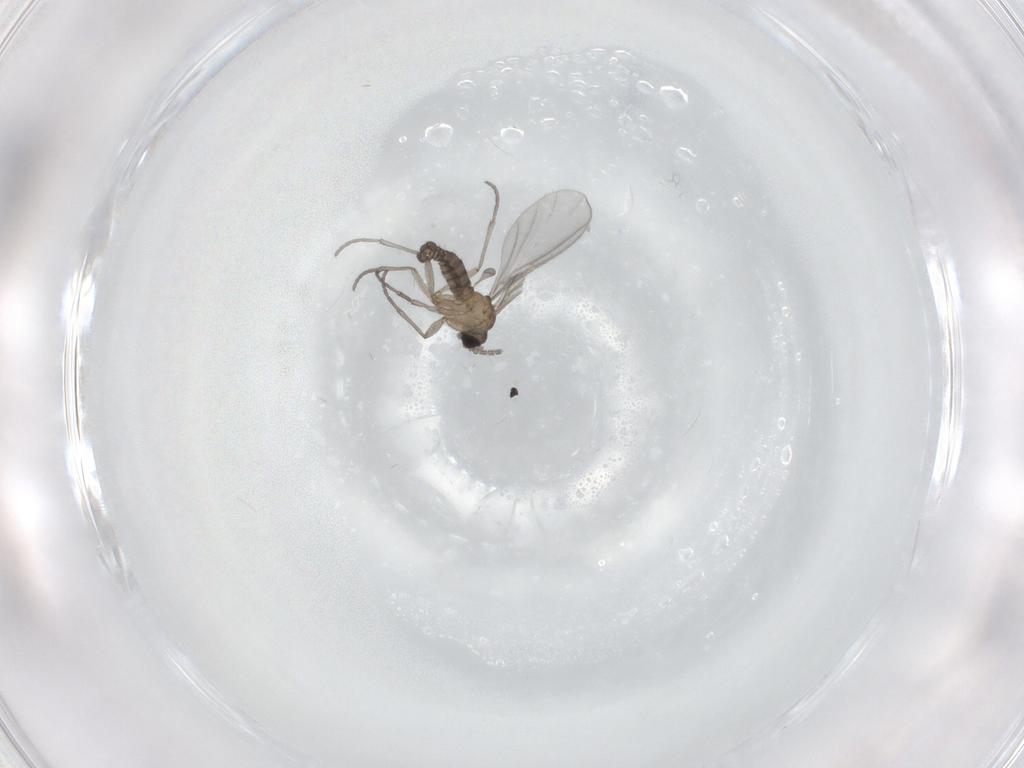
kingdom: Animalia
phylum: Arthropoda
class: Insecta
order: Diptera
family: Sciaridae
